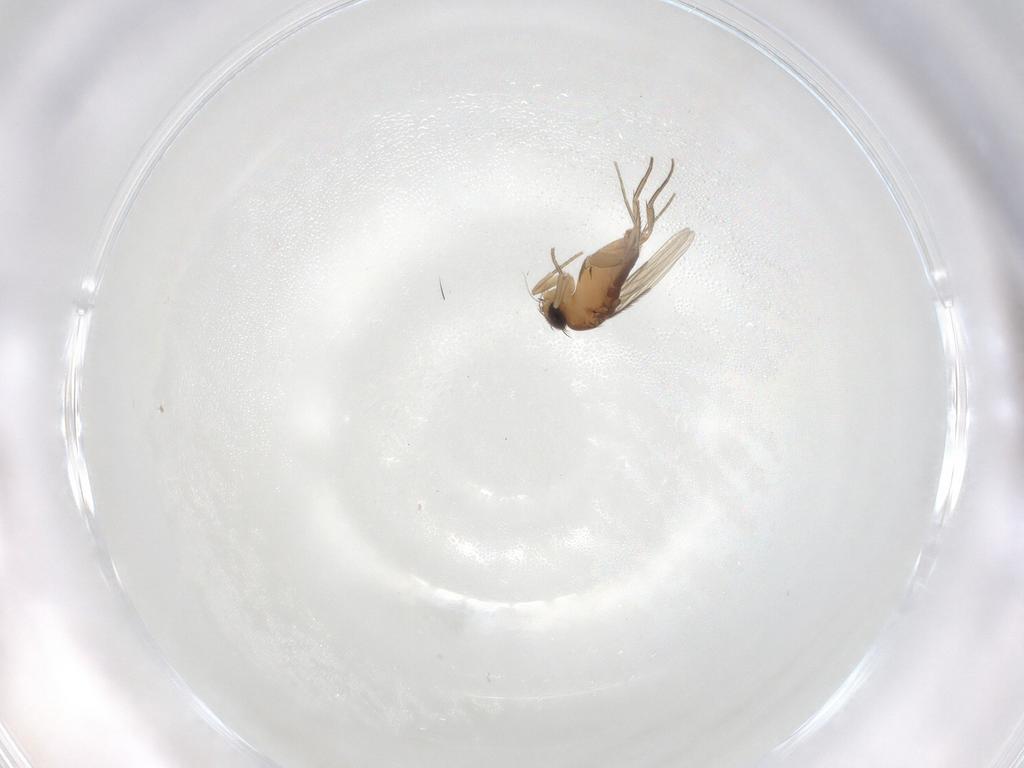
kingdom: Animalia
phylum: Arthropoda
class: Insecta
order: Diptera
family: Phoridae
